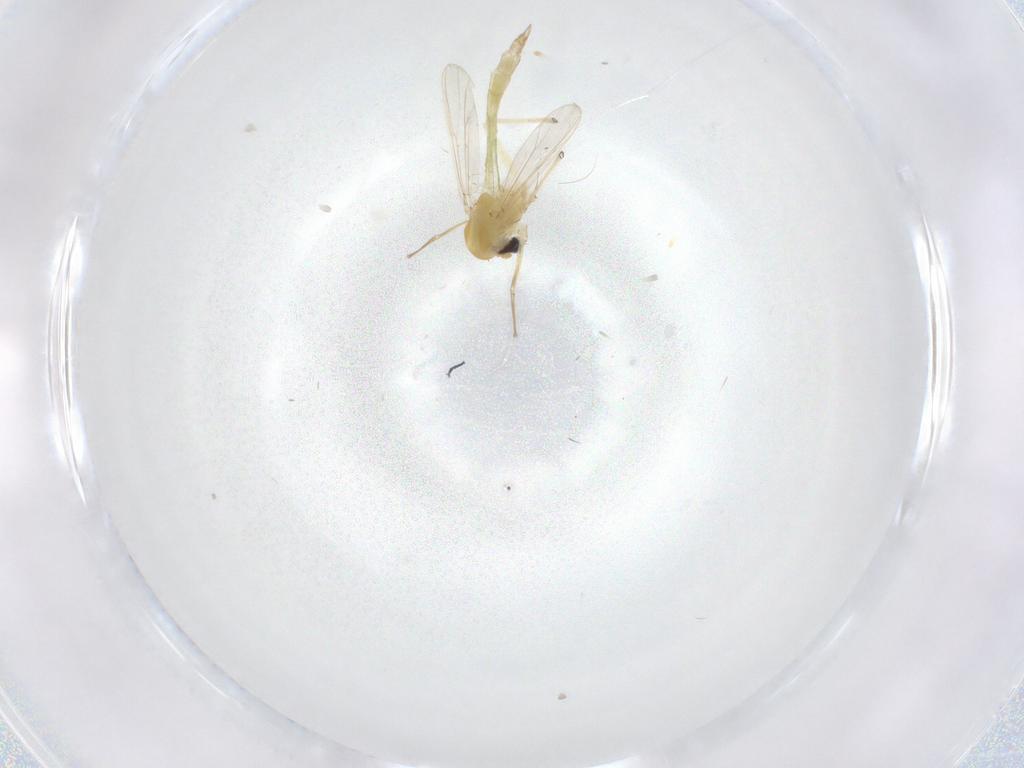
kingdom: Animalia
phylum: Arthropoda
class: Insecta
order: Diptera
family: Chironomidae
